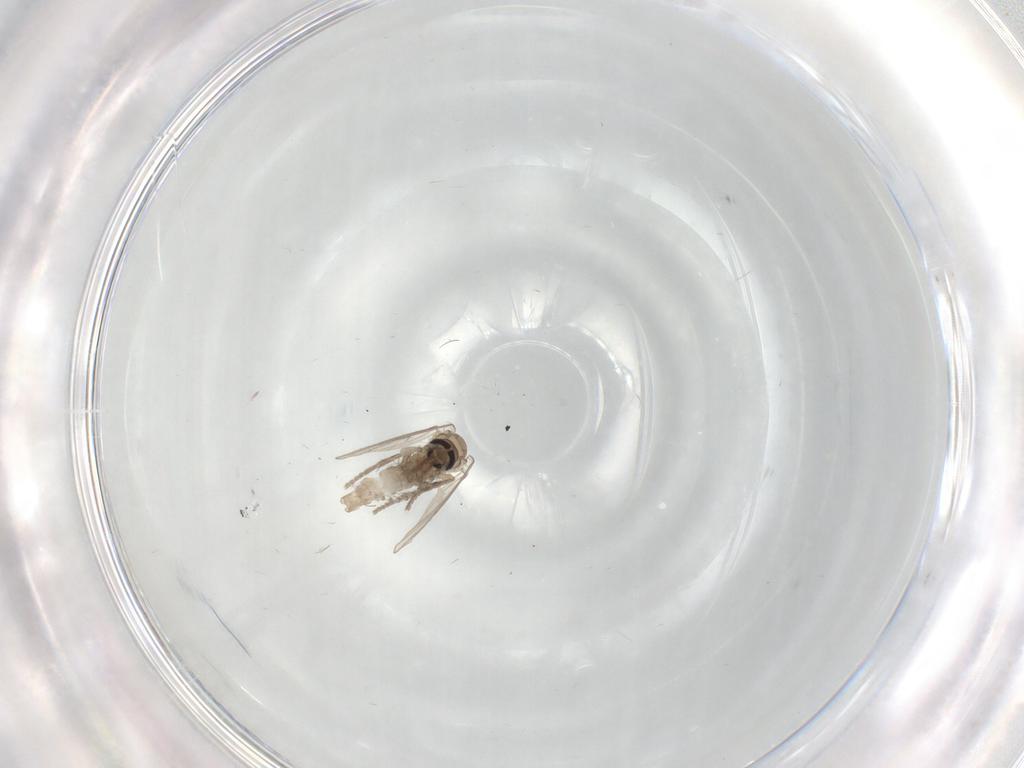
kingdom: Animalia
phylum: Arthropoda
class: Insecta
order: Diptera
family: Psychodidae
